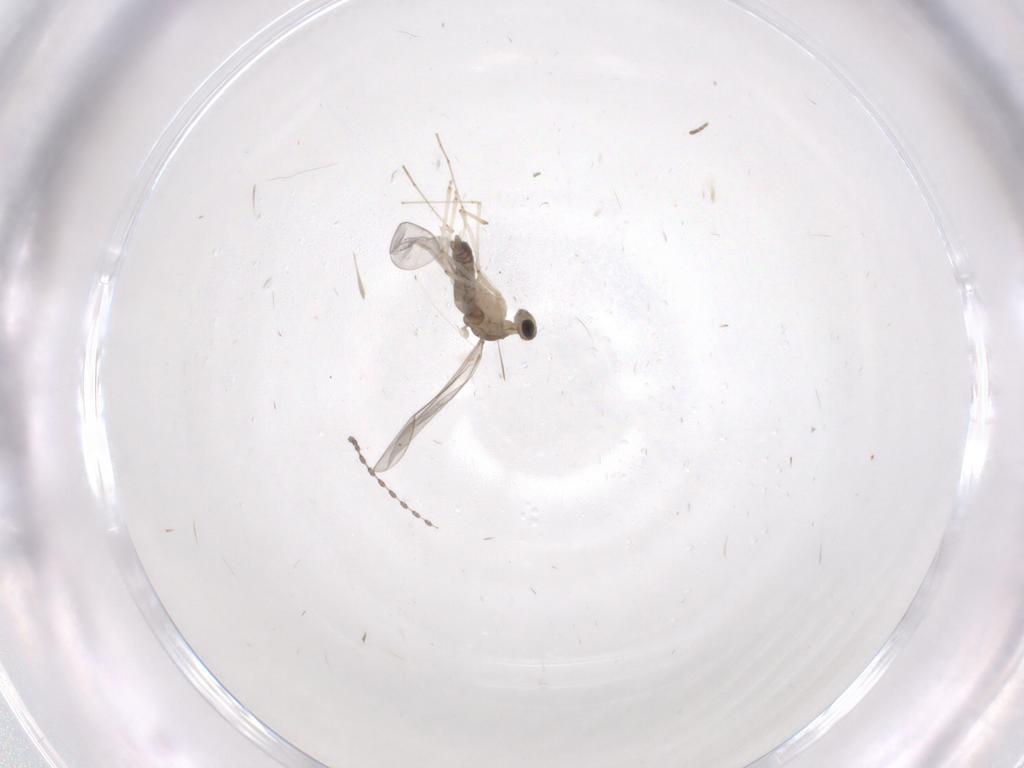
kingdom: Animalia
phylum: Arthropoda
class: Insecta
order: Diptera
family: Cecidomyiidae
